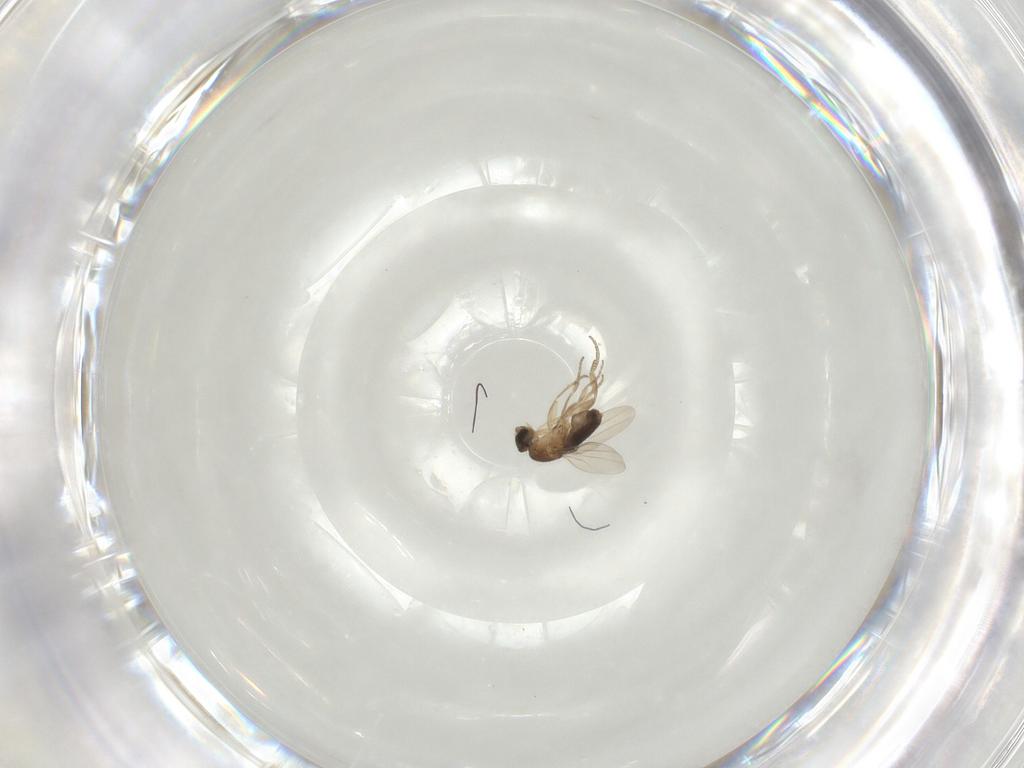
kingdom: Animalia
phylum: Arthropoda
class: Insecta
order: Diptera
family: Phoridae
